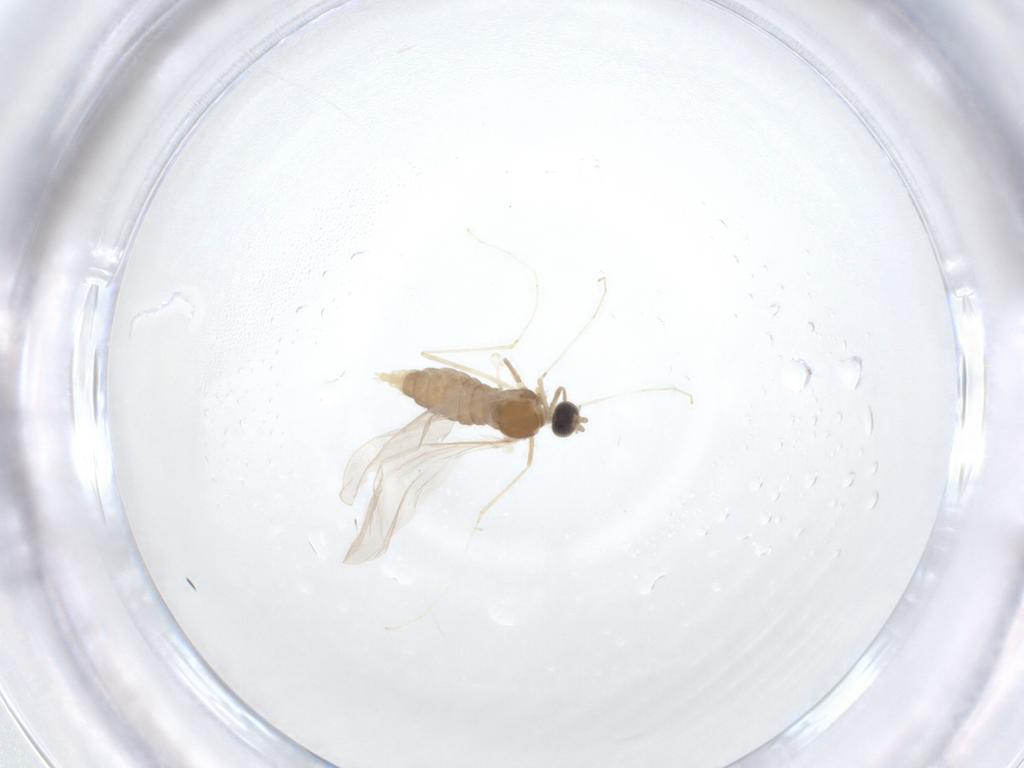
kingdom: Animalia
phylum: Arthropoda
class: Insecta
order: Diptera
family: Cecidomyiidae
